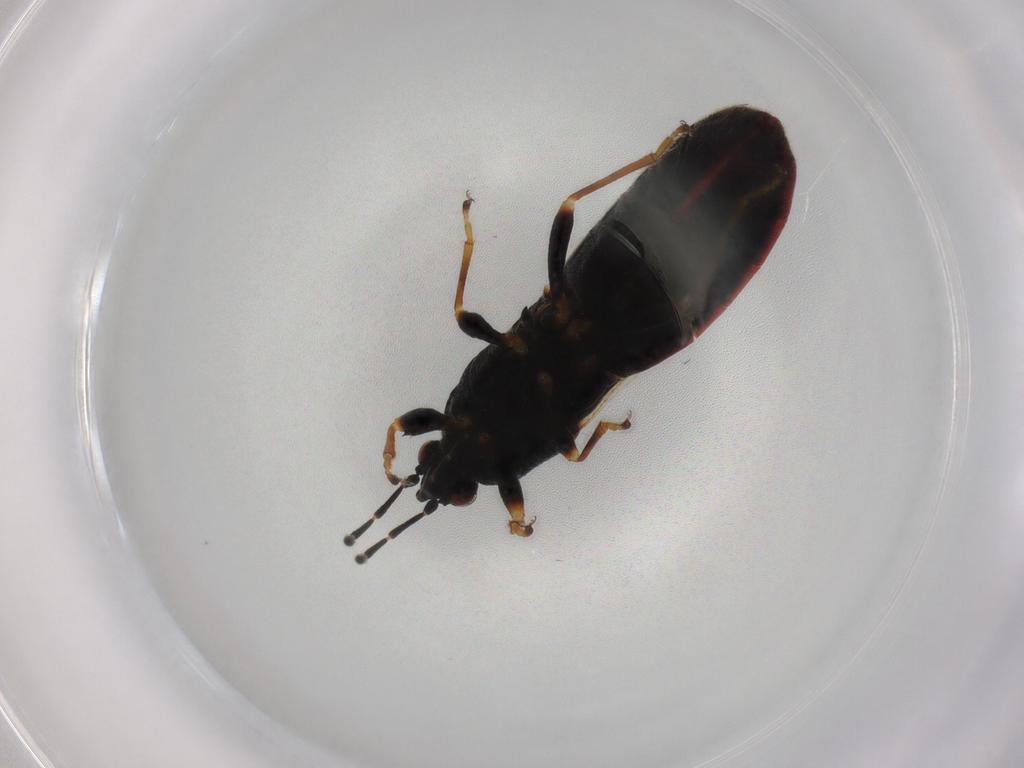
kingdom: Animalia
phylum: Arthropoda
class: Insecta
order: Hemiptera
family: Blissidae
